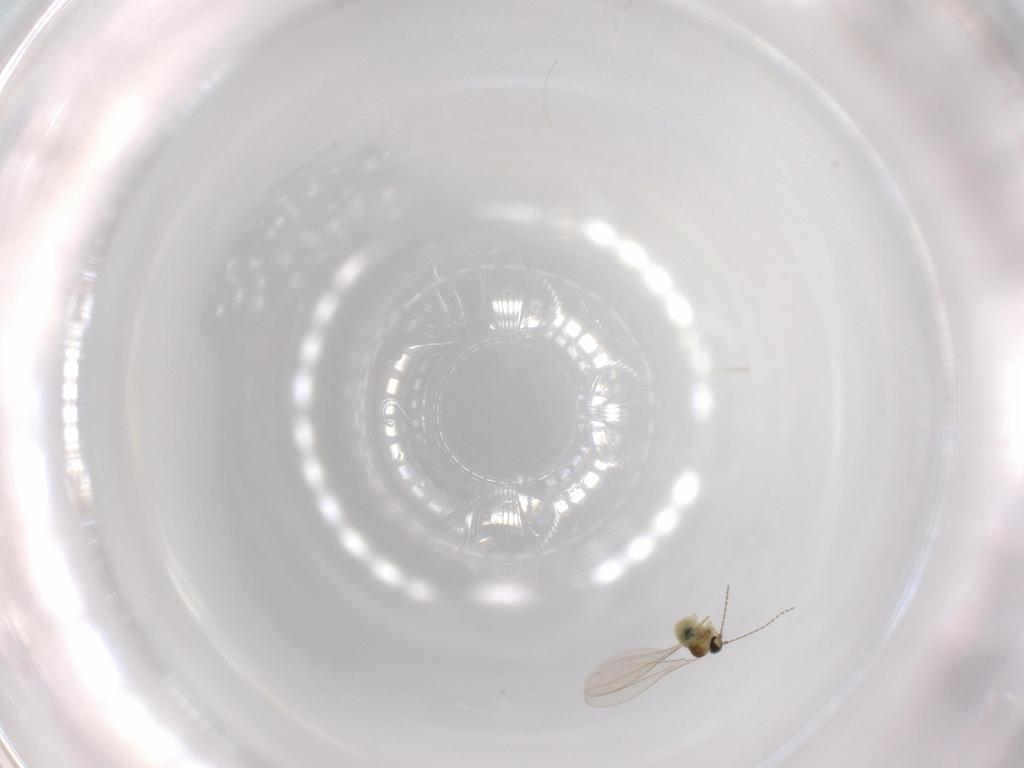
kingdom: Animalia
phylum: Arthropoda
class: Insecta
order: Diptera
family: Cecidomyiidae
